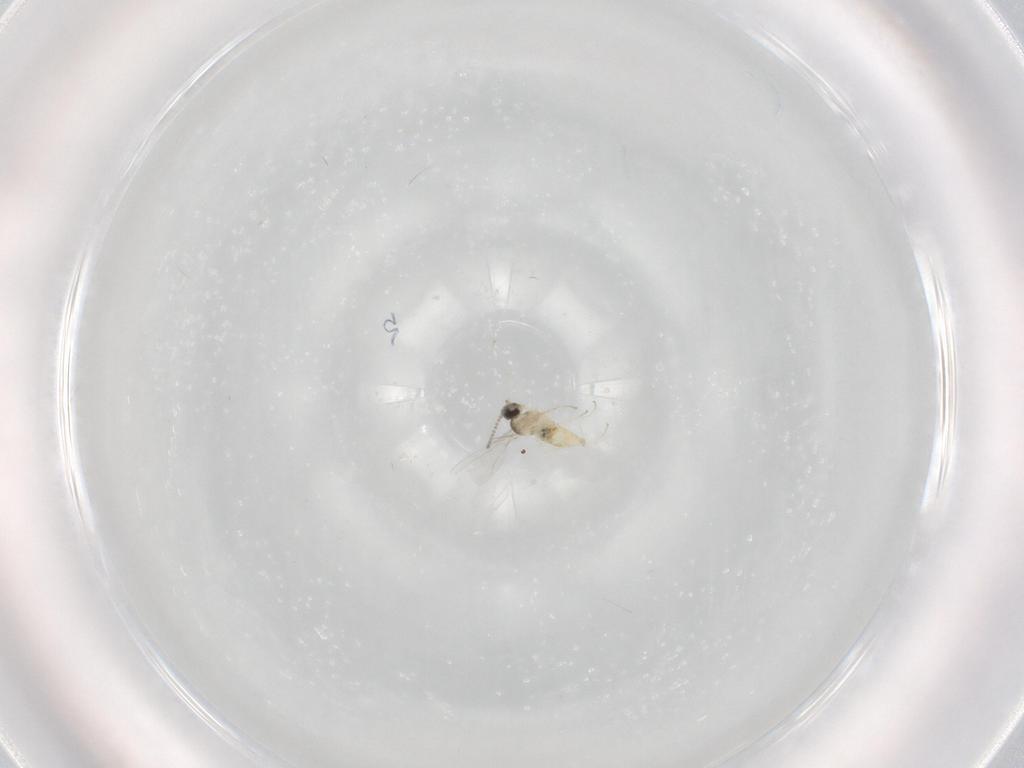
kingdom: Animalia
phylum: Arthropoda
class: Insecta
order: Diptera
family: Cecidomyiidae
